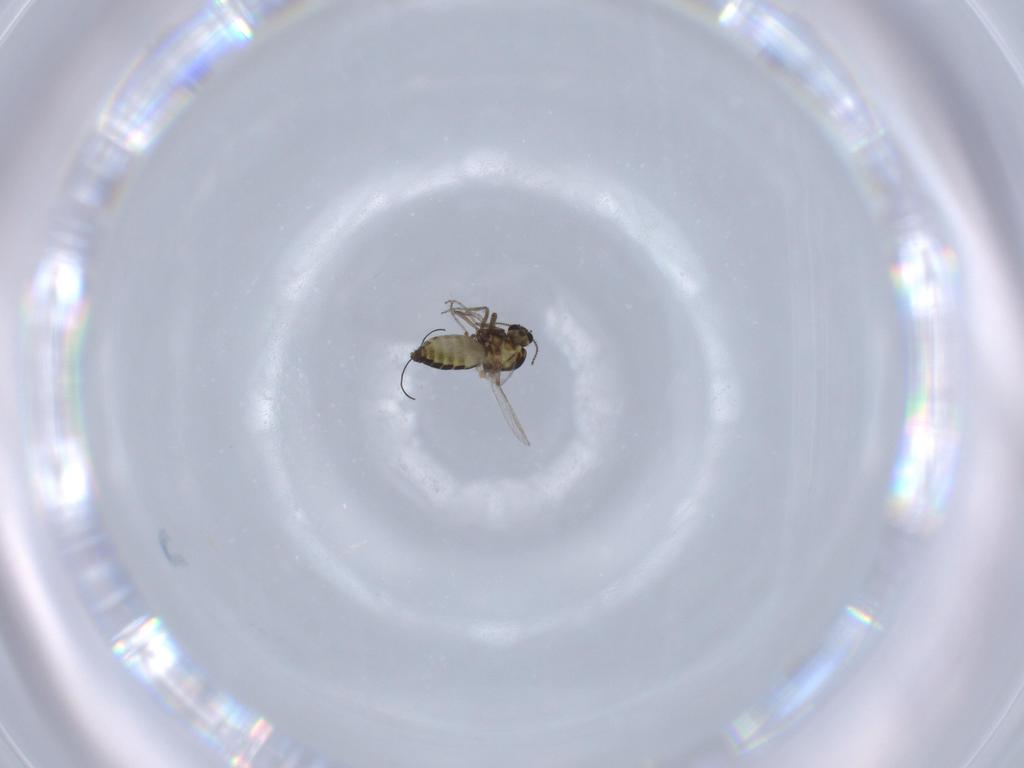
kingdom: Animalia
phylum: Arthropoda
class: Insecta
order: Diptera
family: Ceratopogonidae
